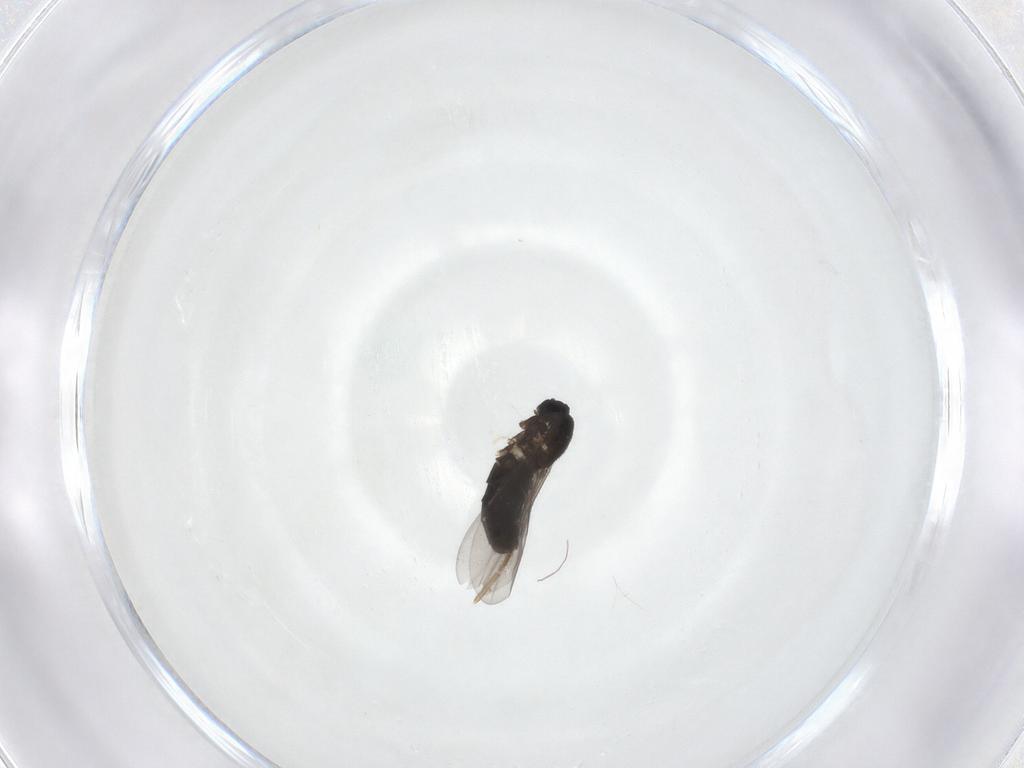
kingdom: Animalia
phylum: Arthropoda
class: Insecta
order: Diptera
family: Scatopsidae
